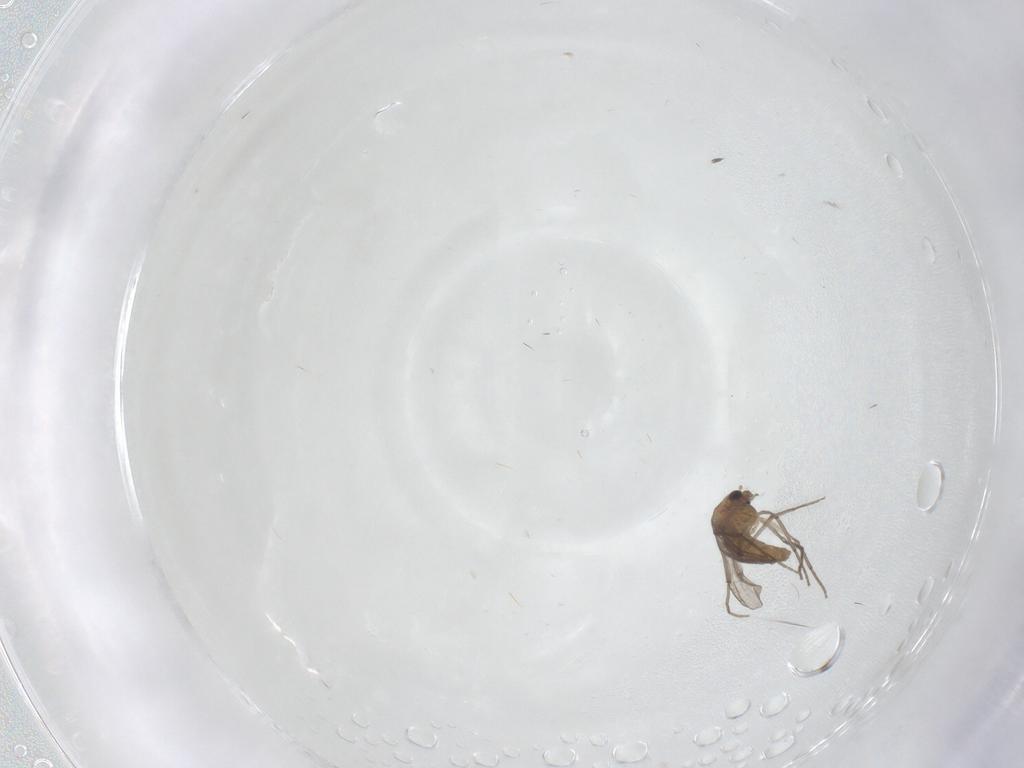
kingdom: Animalia
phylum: Arthropoda
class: Insecta
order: Diptera
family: Chironomidae
